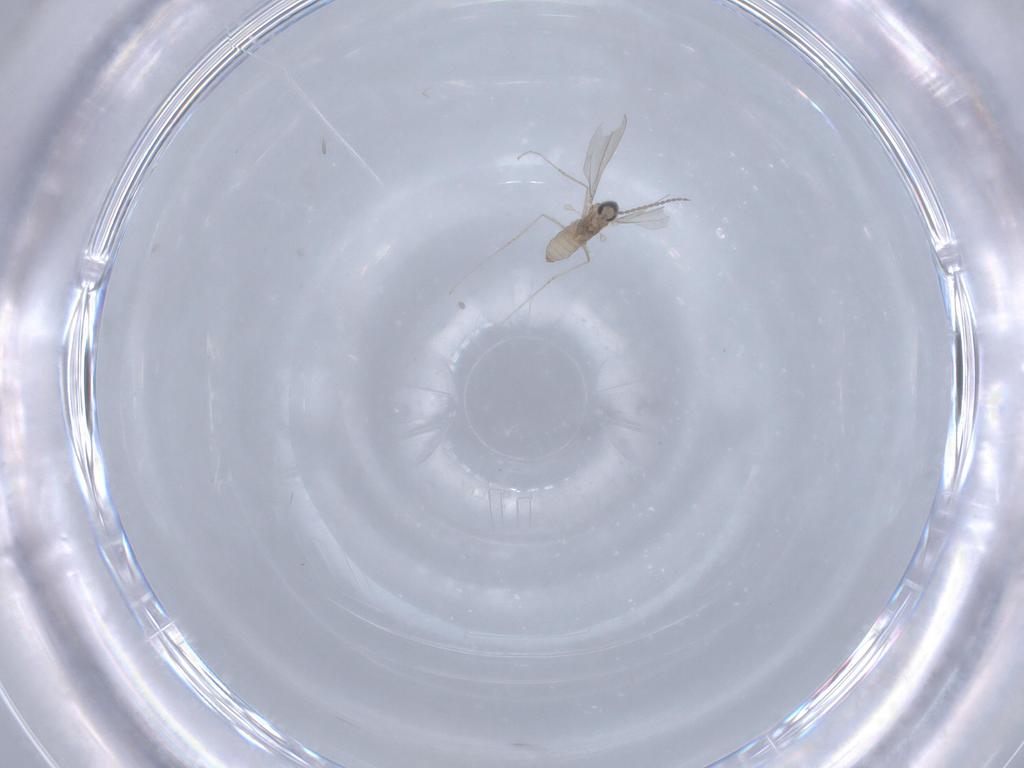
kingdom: Animalia
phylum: Arthropoda
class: Insecta
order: Diptera
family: Cecidomyiidae
